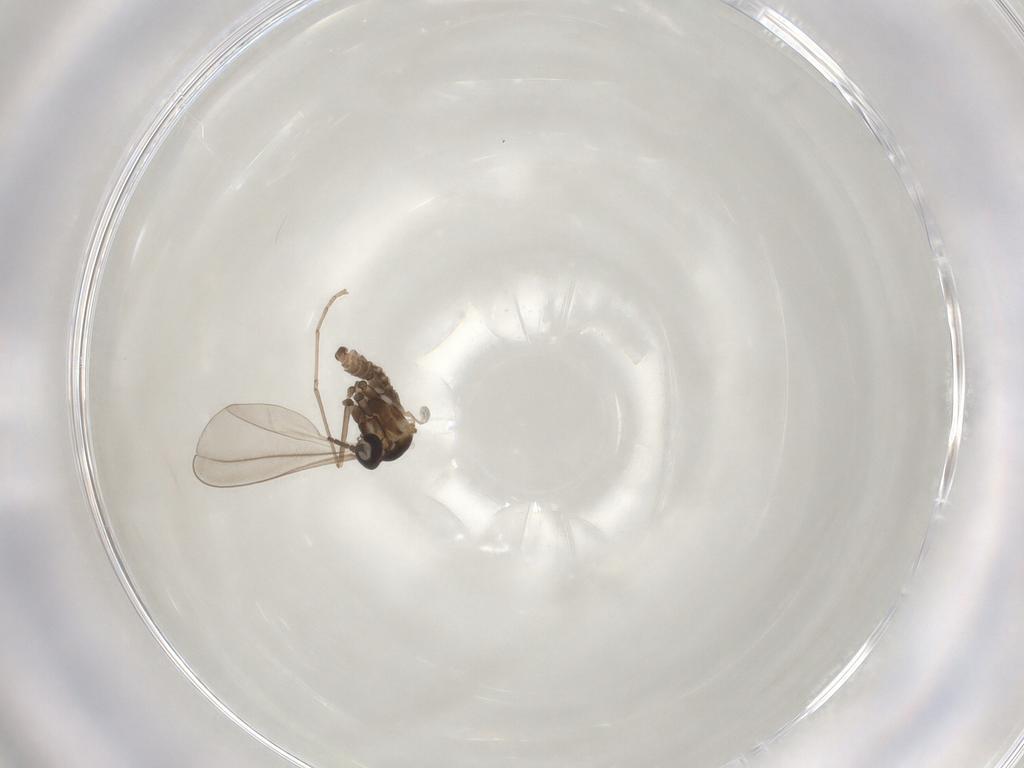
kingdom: Animalia
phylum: Arthropoda
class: Insecta
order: Diptera
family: Cecidomyiidae
